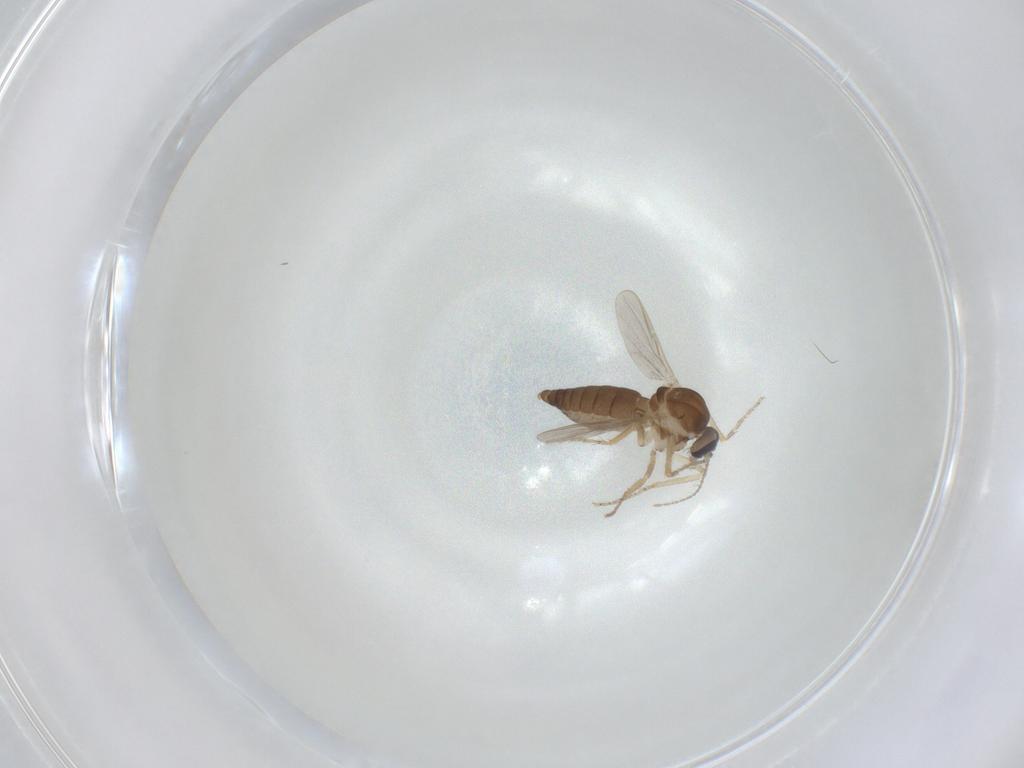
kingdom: Animalia
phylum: Arthropoda
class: Insecta
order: Diptera
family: Ceratopogonidae
